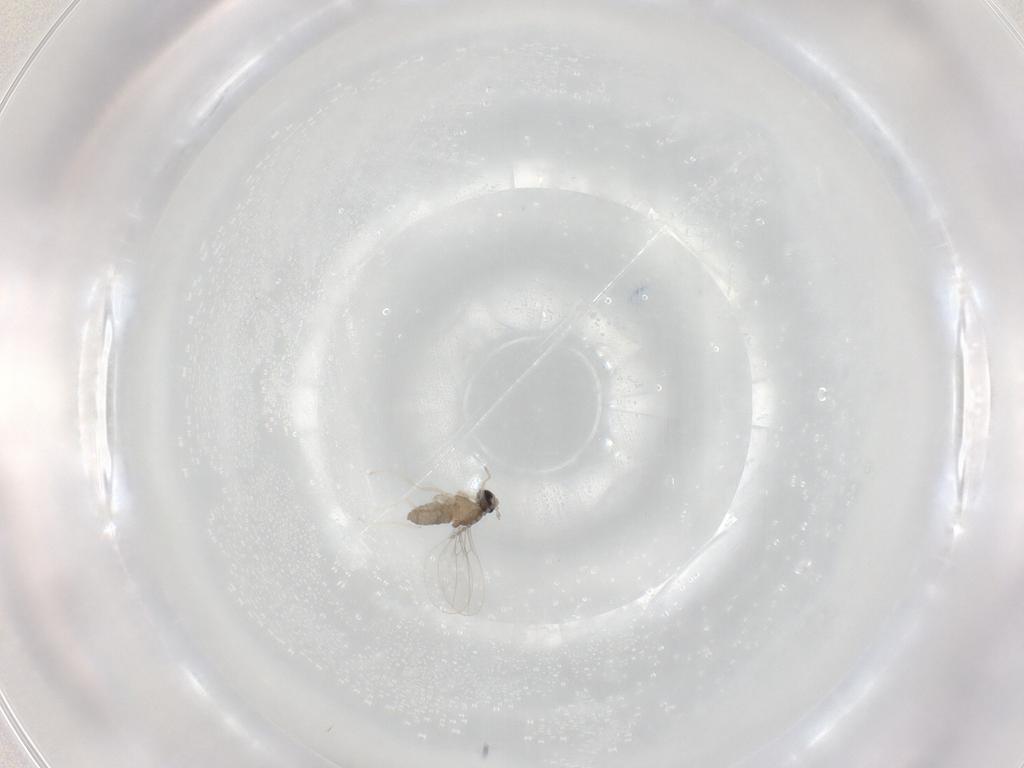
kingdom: Animalia
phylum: Arthropoda
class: Insecta
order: Diptera
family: Cecidomyiidae
